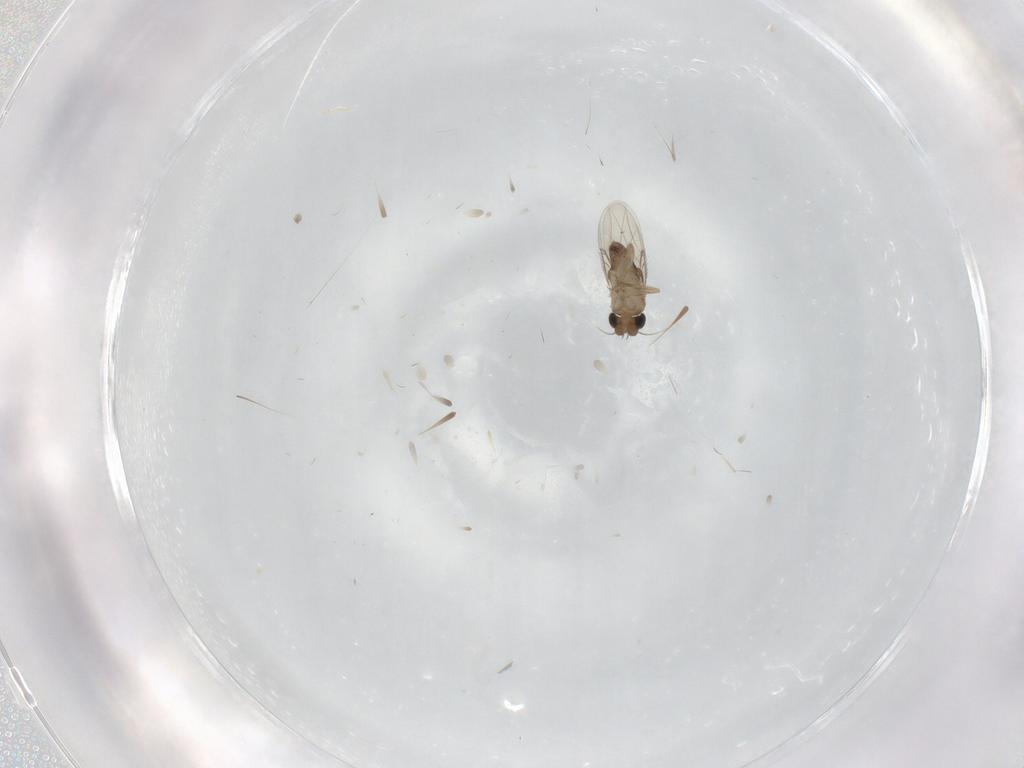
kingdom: Animalia
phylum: Arthropoda
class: Insecta
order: Diptera
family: Phoridae
